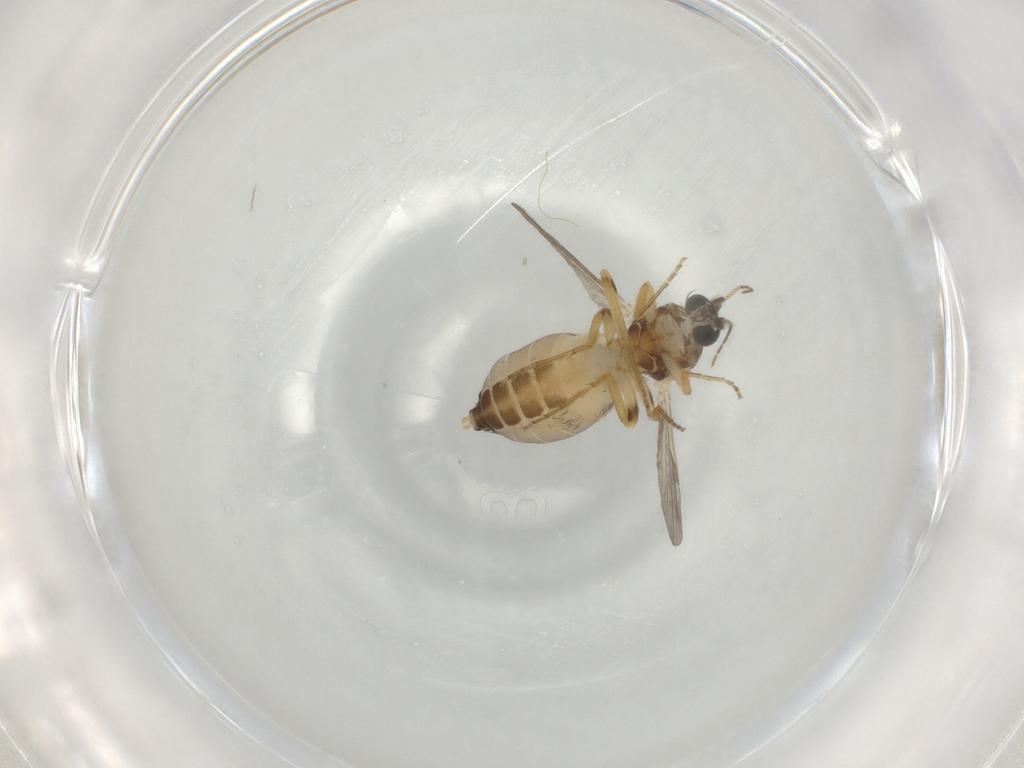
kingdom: Animalia
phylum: Arthropoda
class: Insecta
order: Diptera
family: Ceratopogonidae
